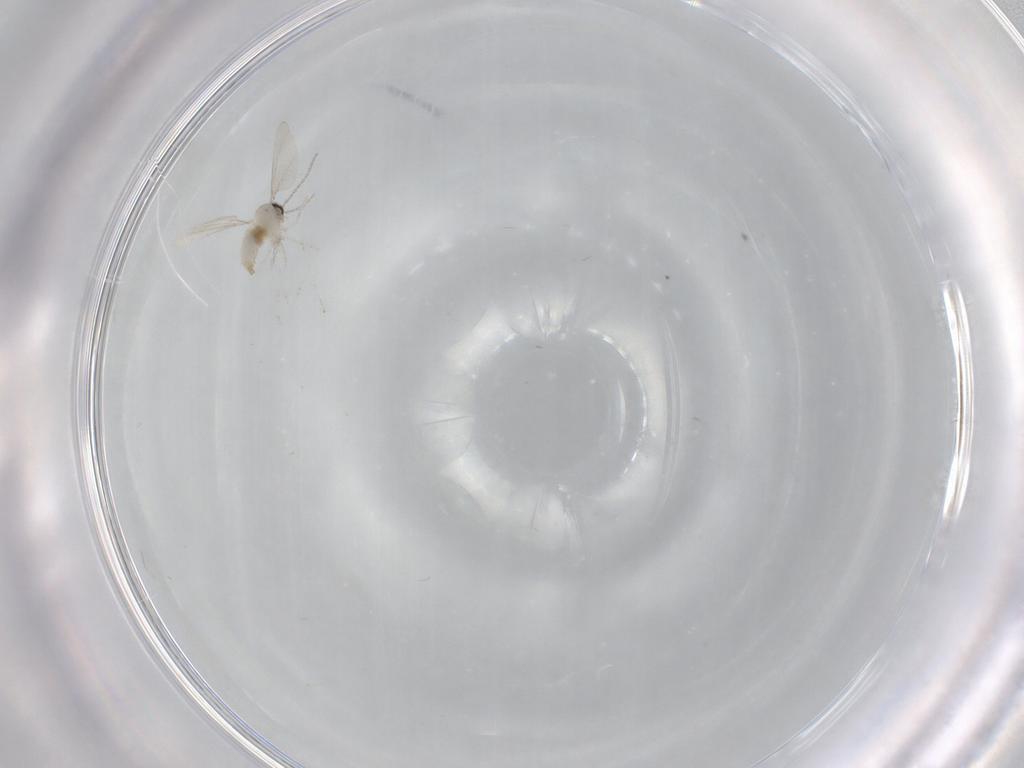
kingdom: Animalia
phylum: Arthropoda
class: Insecta
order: Diptera
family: Cecidomyiidae
